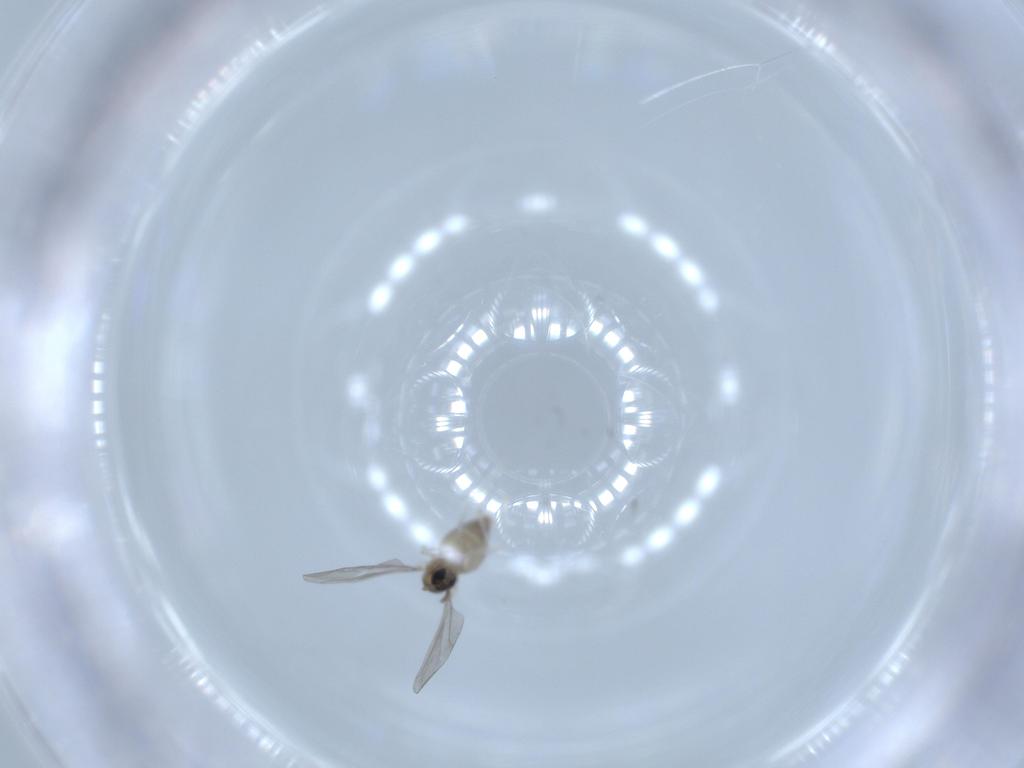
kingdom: Animalia
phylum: Arthropoda
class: Insecta
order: Diptera
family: Cecidomyiidae
